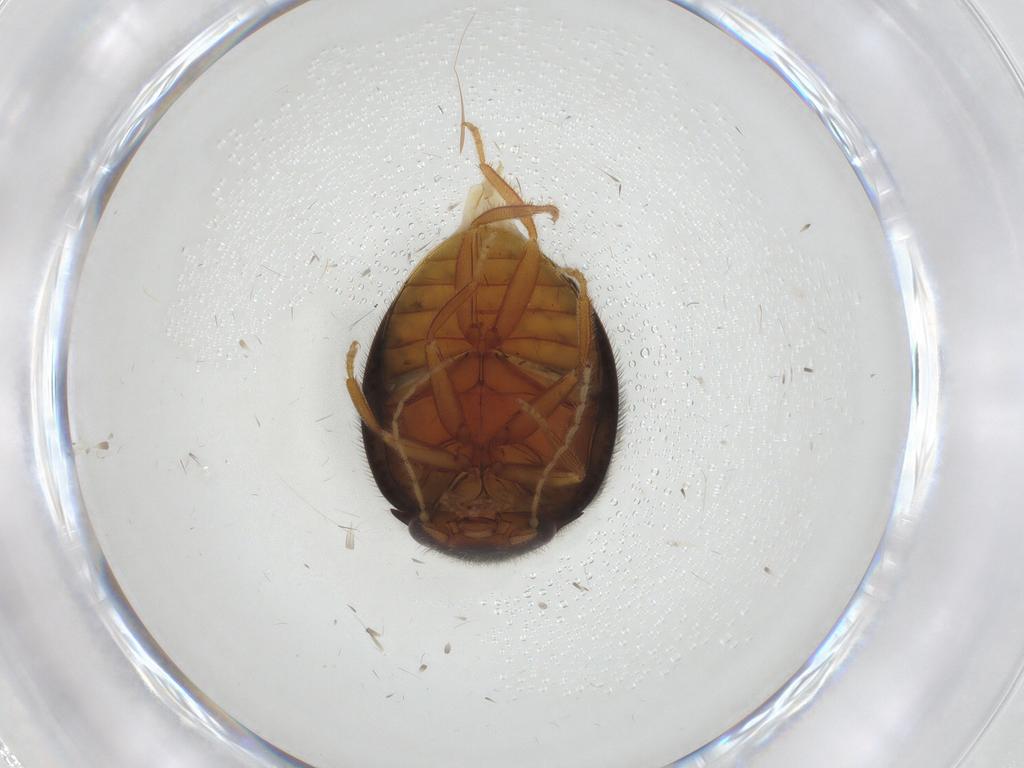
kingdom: Animalia
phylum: Arthropoda
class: Insecta
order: Coleoptera
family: Scirtidae
